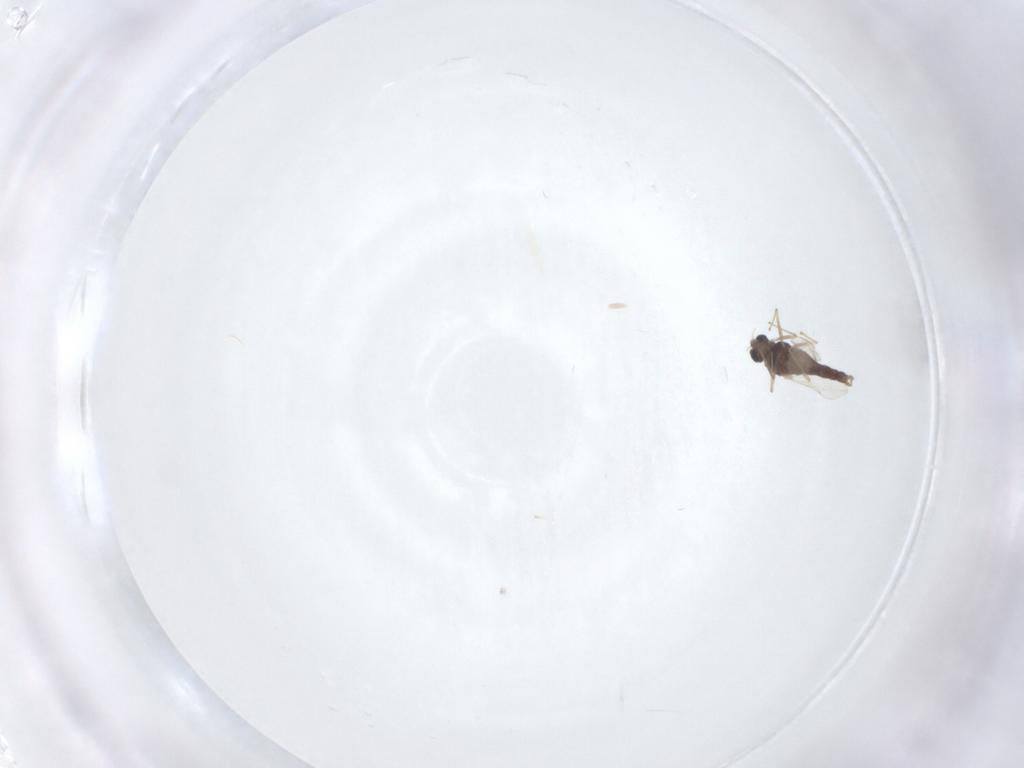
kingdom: Animalia
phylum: Arthropoda
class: Insecta
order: Diptera
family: Chironomidae
